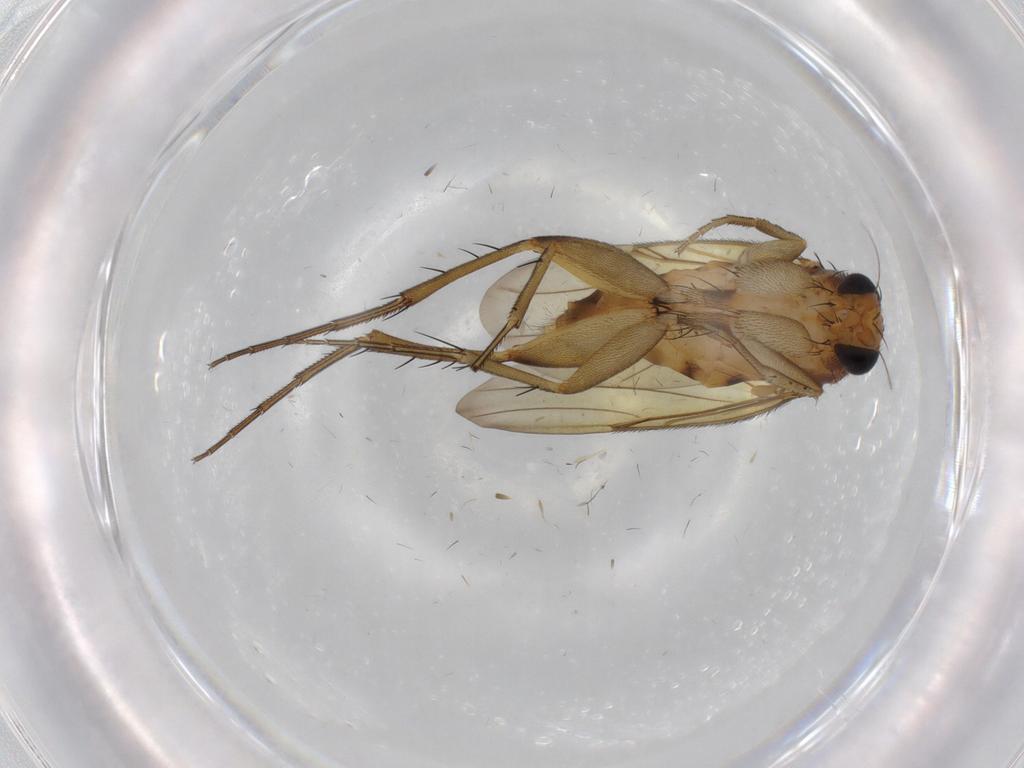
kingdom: Animalia
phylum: Arthropoda
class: Insecta
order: Diptera
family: Phoridae
